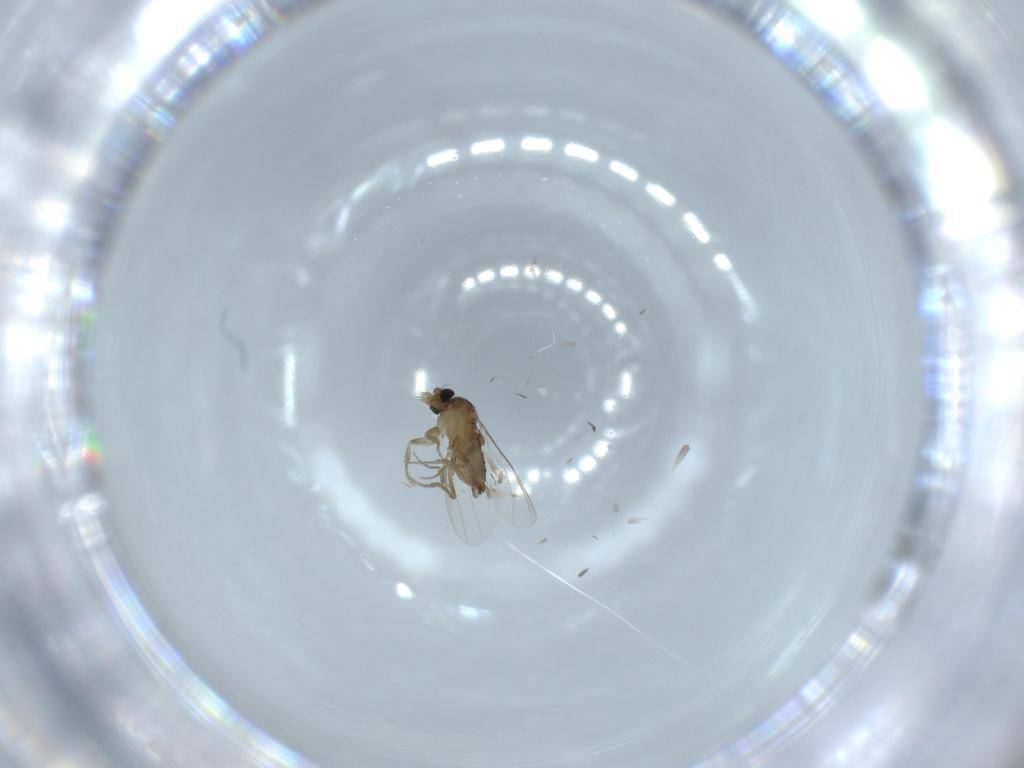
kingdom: Animalia
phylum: Arthropoda
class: Insecta
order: Diptera
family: Phoridae
